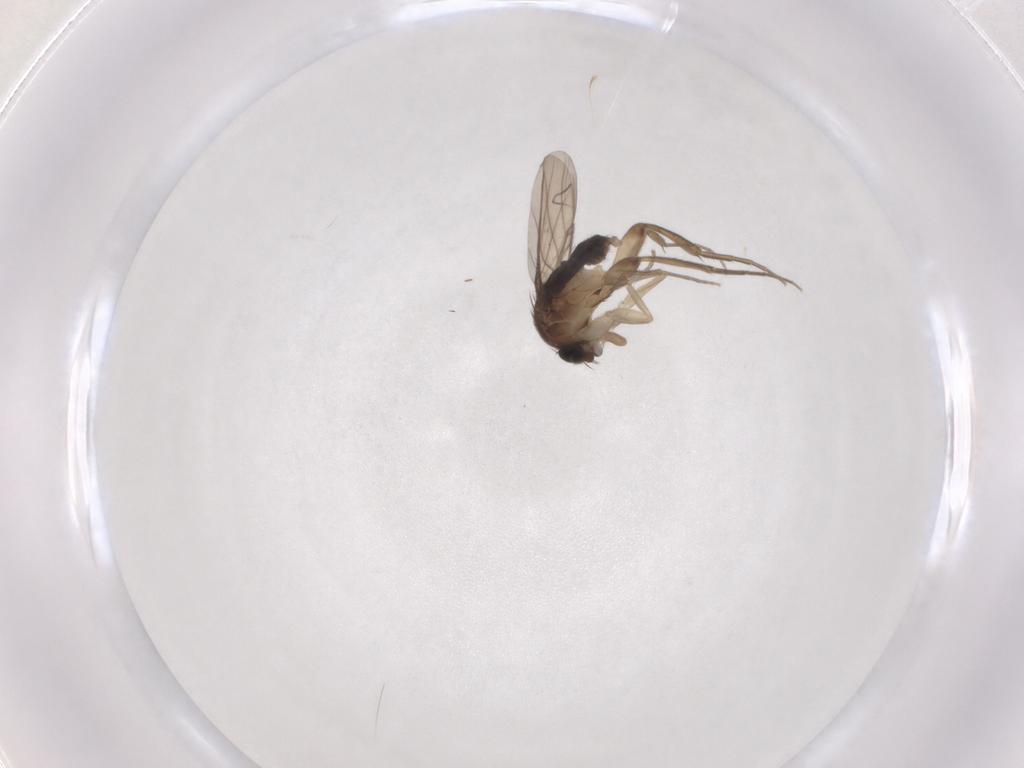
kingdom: Animalia
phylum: Arthropoda
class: Insecta
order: Diptera
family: Phoridae
